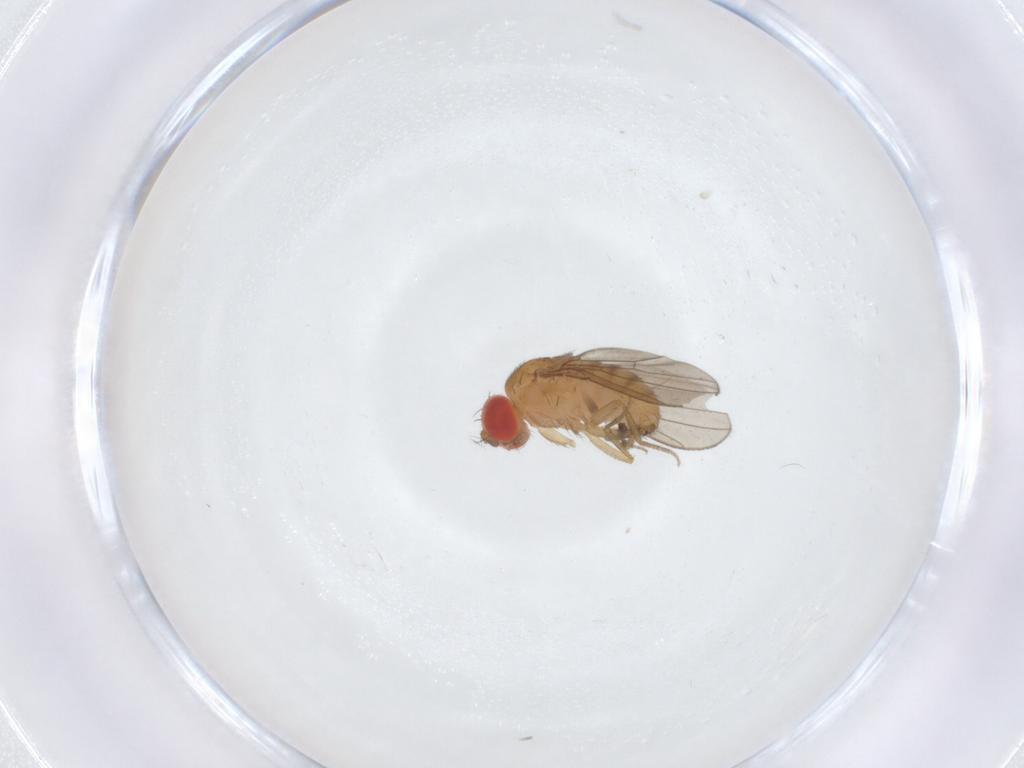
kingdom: Animalia
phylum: Arthropoda
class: Insecta
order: Diptera
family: Drosophilidae
